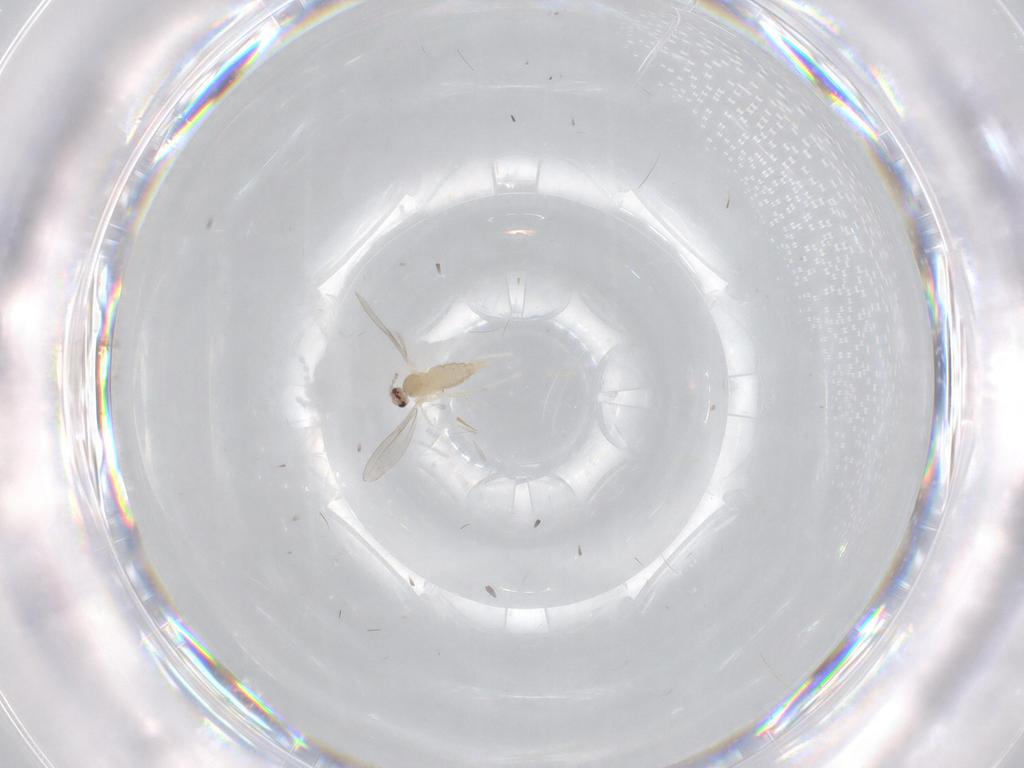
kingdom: Animalia
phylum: Arthropoda
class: Insecta
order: Diptera
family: Cecidomyiidae
